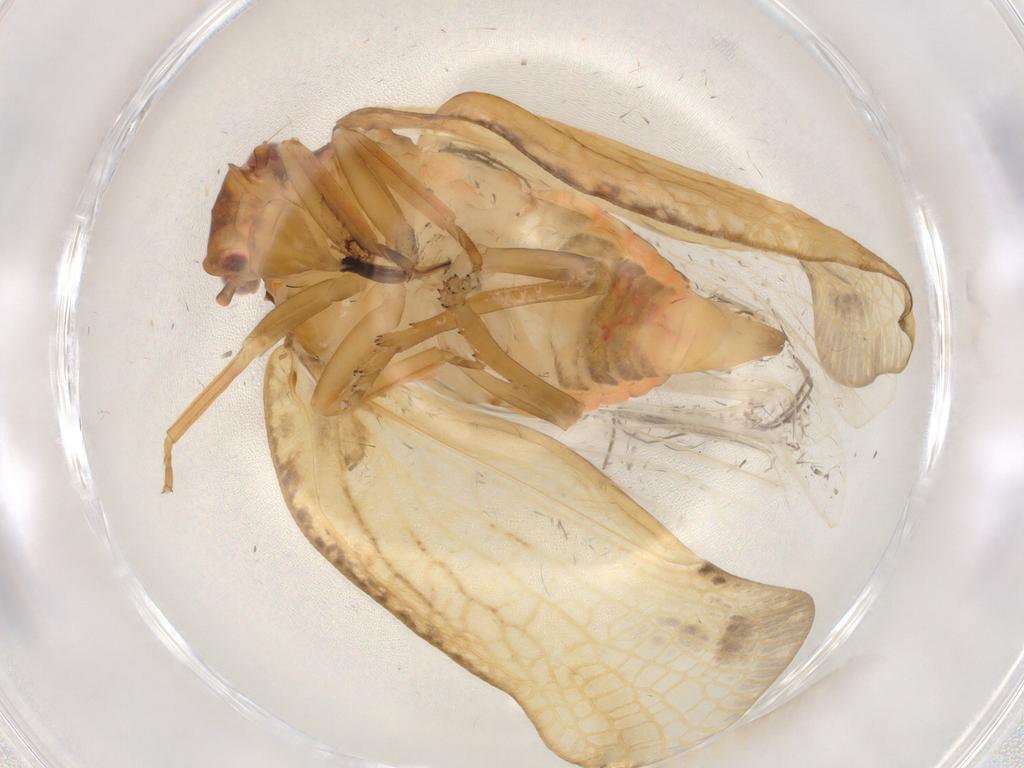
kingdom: Animalia
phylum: Arthropoda
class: Insecta
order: Hemiptera
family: Flatidae
